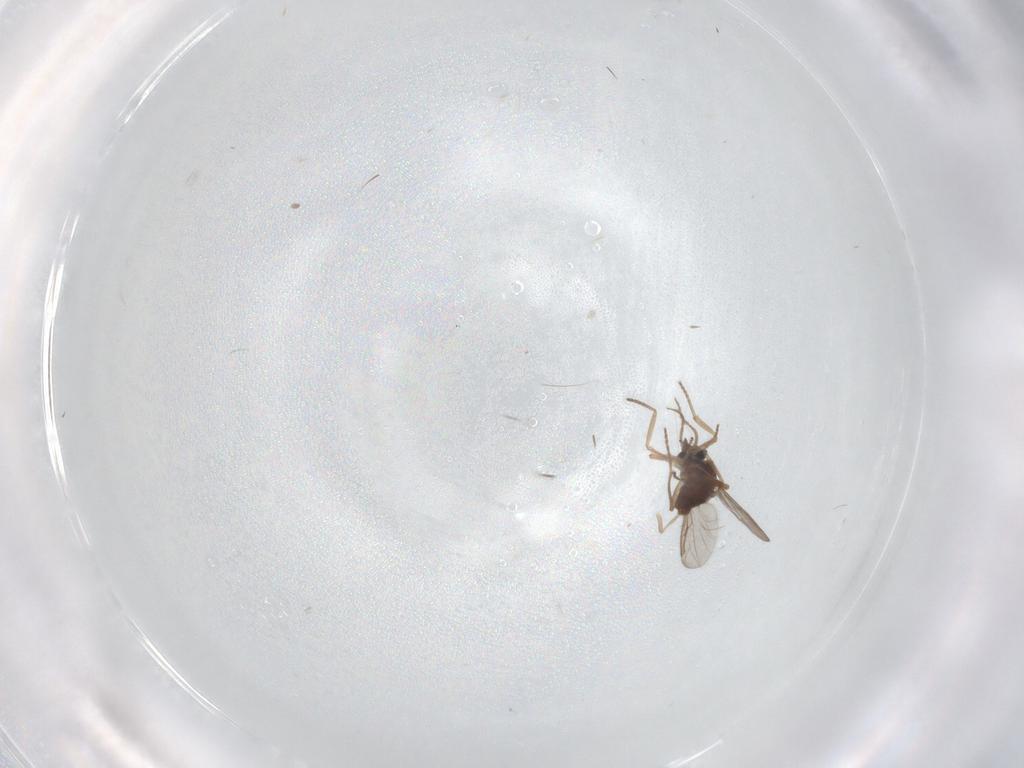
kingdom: Animalia
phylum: Arthropoda
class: Insecta
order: Diptera
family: Psychodidae
